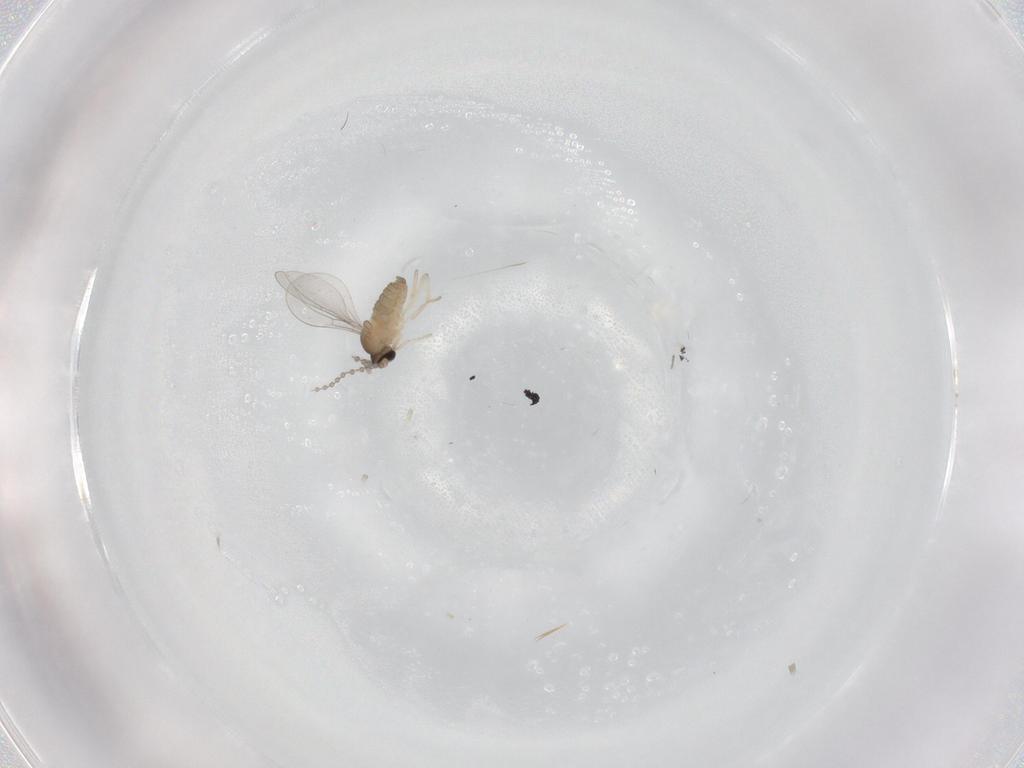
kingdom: Animalia
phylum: Arthropoda
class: Insecta
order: Diptera
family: Cecidomyiidae
